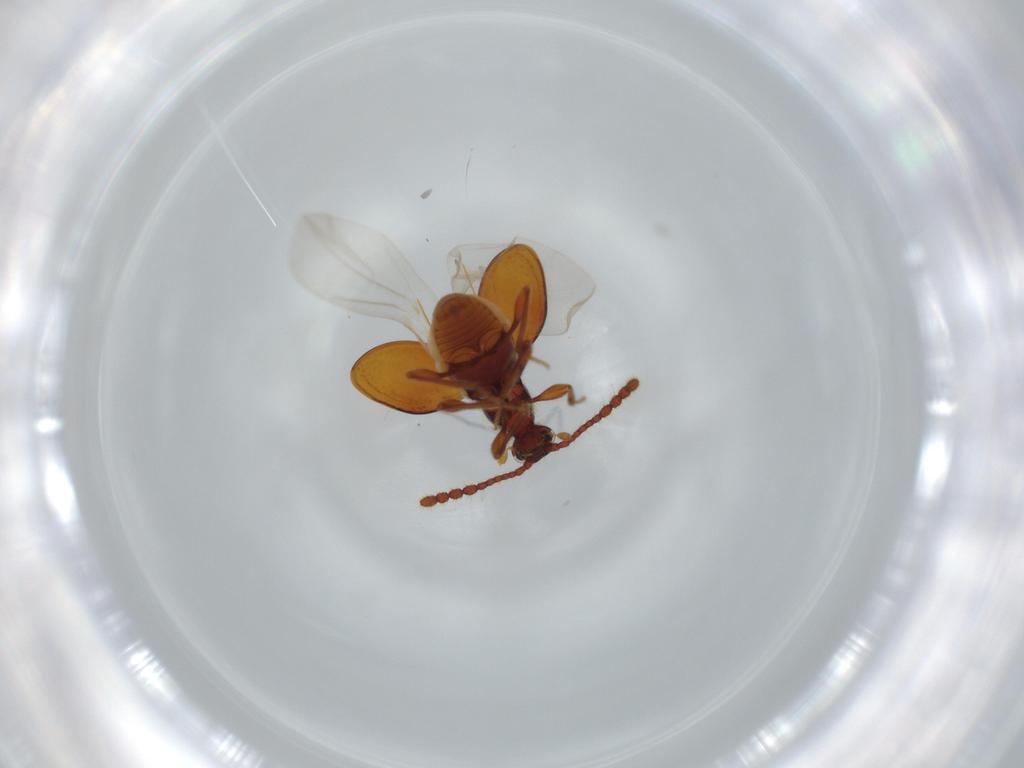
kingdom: Animalia
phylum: Arthropoda
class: Insecta
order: Coleoptera
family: Staphylinidae
